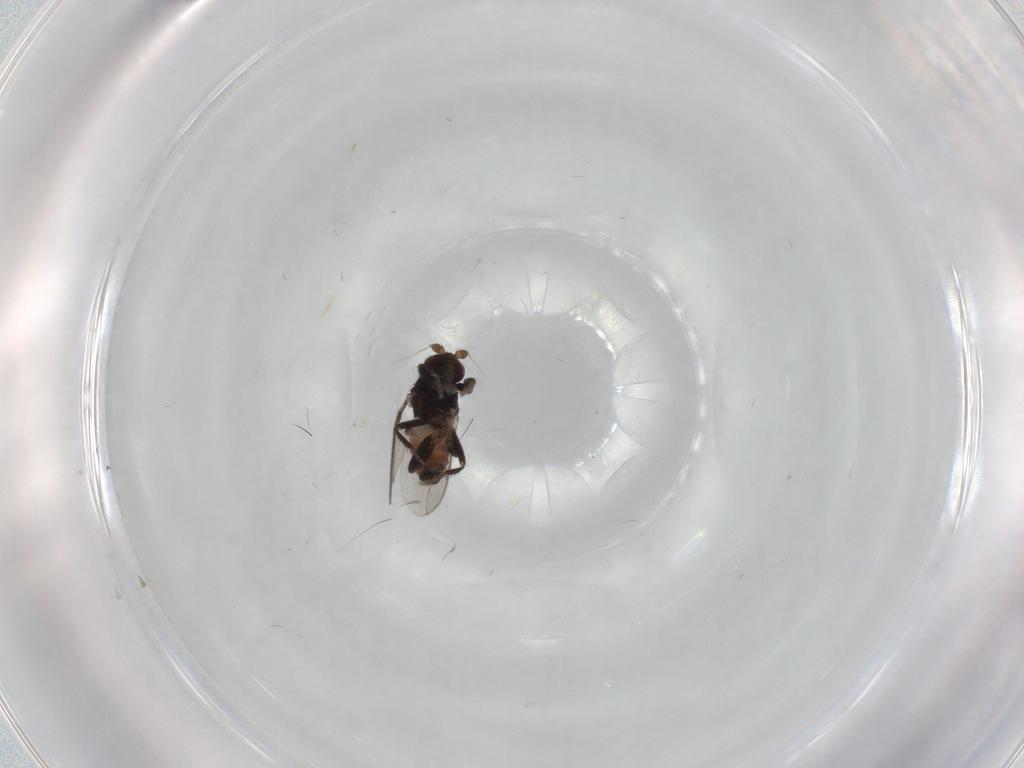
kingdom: Animalia
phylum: Arthropoda
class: Insecta
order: Diptera
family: Sphaeroceridae
